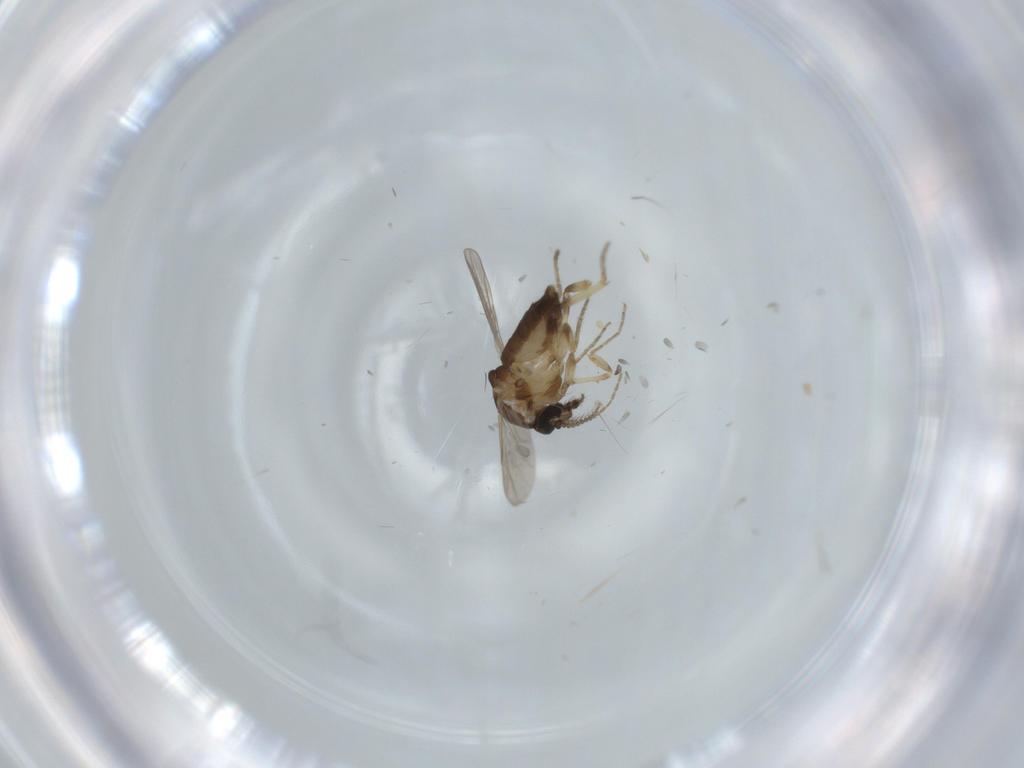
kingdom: Animalia
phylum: Arthropoda
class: Insecta
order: Diptera
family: Ceratopogonidae
